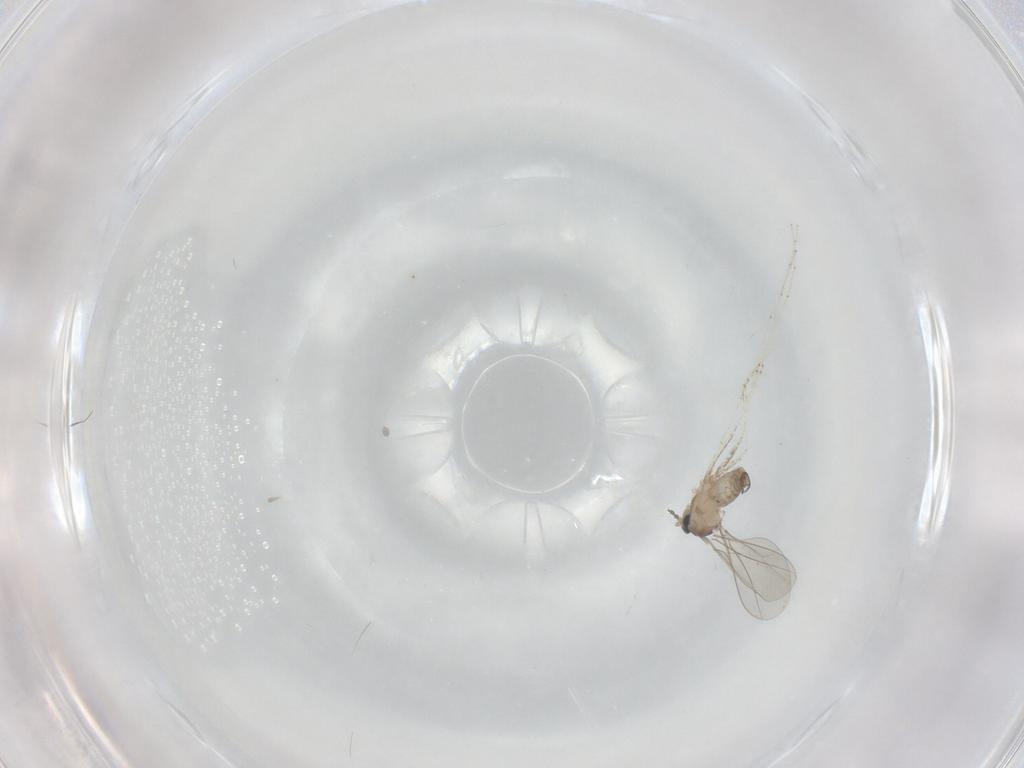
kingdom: Animalia
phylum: Arthropoda
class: Insecta
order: Diptera
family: Cecidomyiidae
